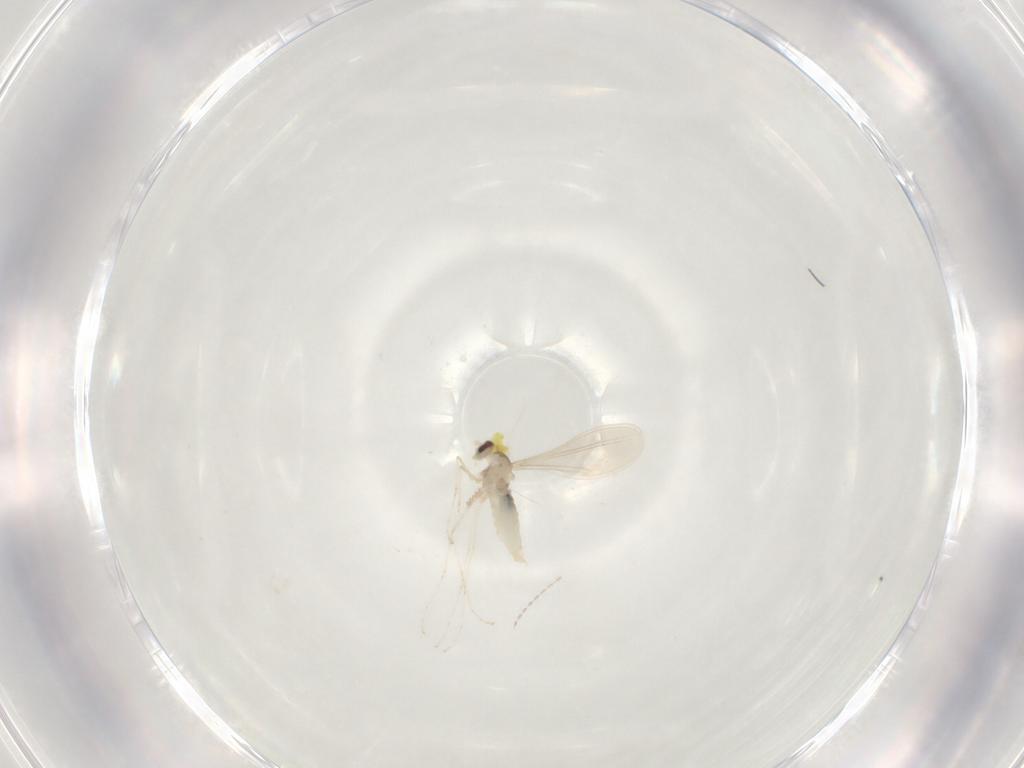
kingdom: Animalia
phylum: Arthropoda
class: Insecta
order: Diptera
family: Cecidomyiidae
